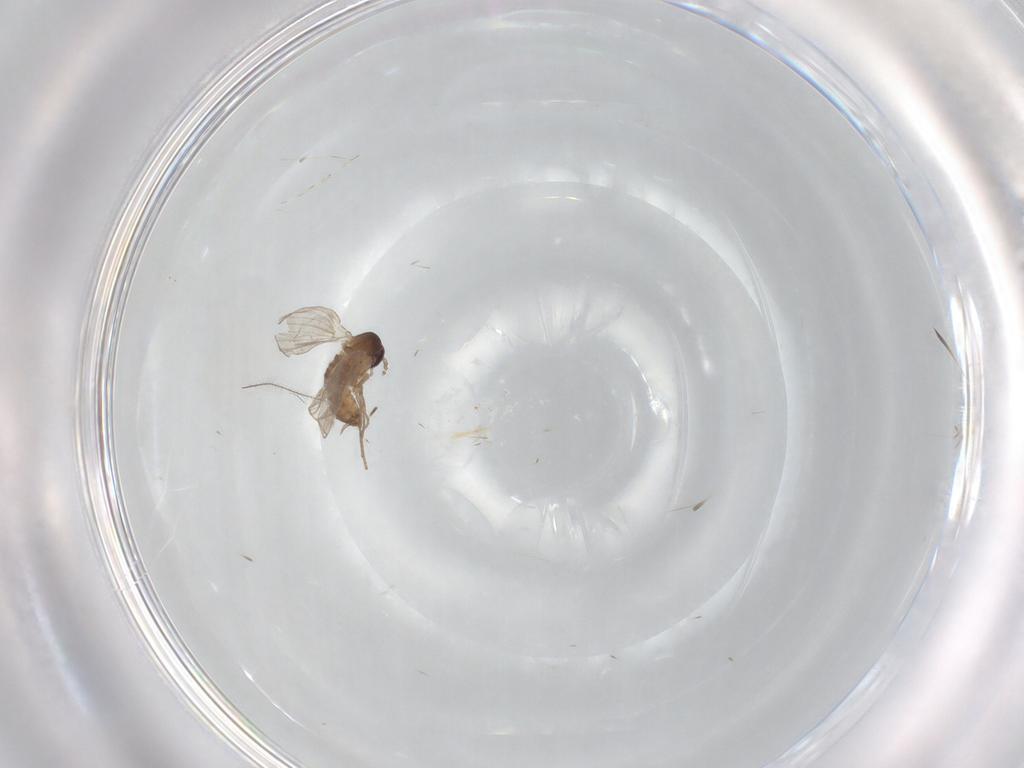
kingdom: Animalia
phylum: Arthropoda
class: Insecta
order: Diptera
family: Psychodidae
